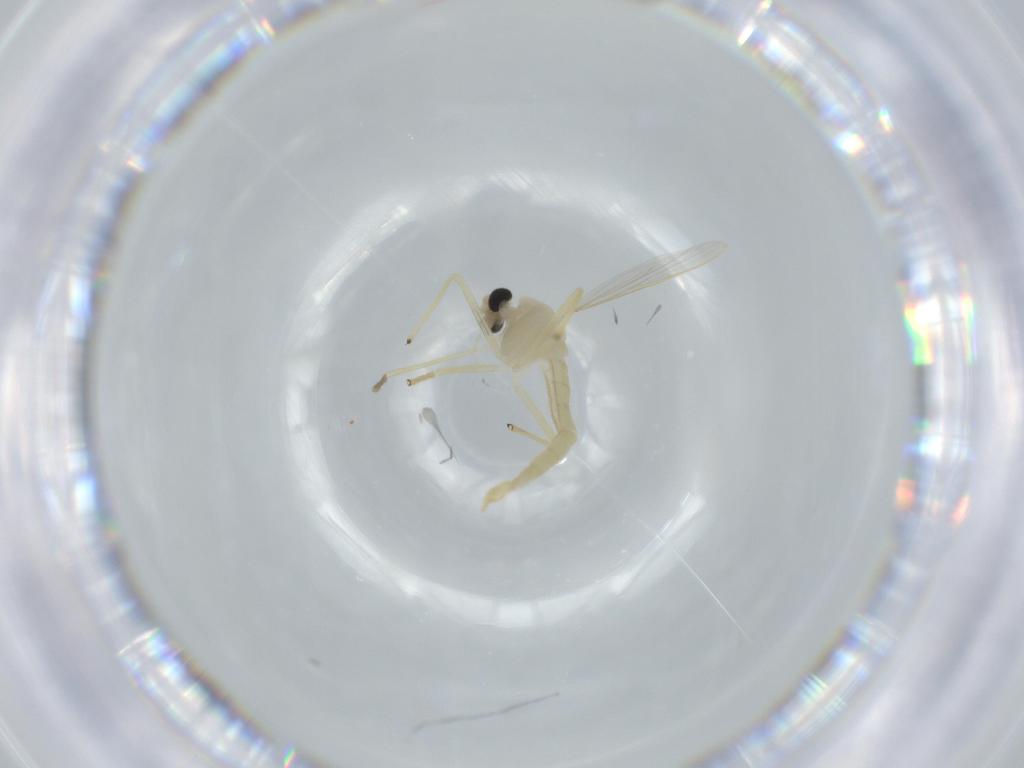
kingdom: Animalia
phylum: Arthropoda
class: Insecta
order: Diptera
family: Chironomidae
